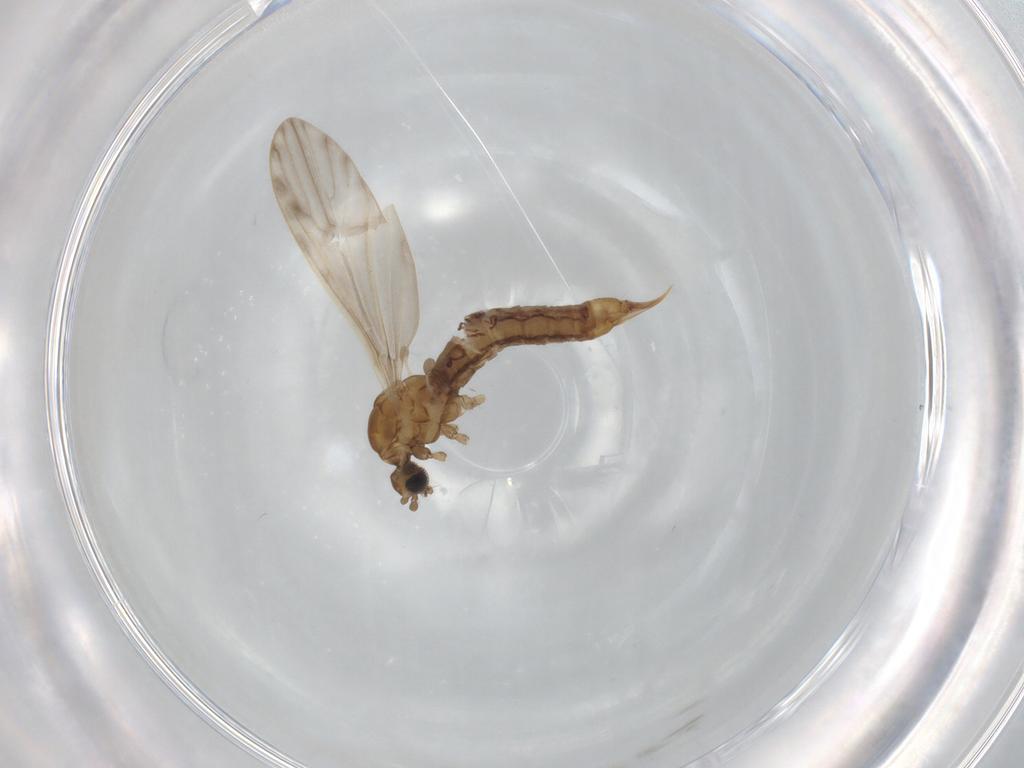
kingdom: Animalia
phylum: Arthropoda
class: Insecta
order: Diptera
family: Limoniidae
